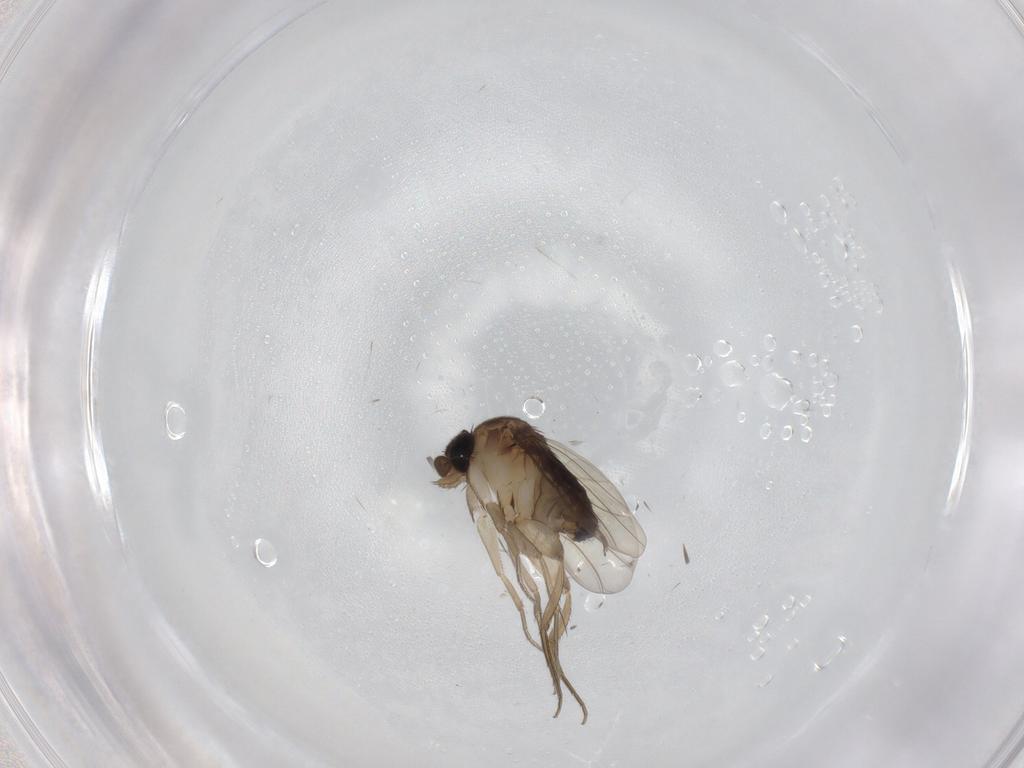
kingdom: Animalia
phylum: Arthropoda
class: Insecta
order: Diptera
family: Phoridae
